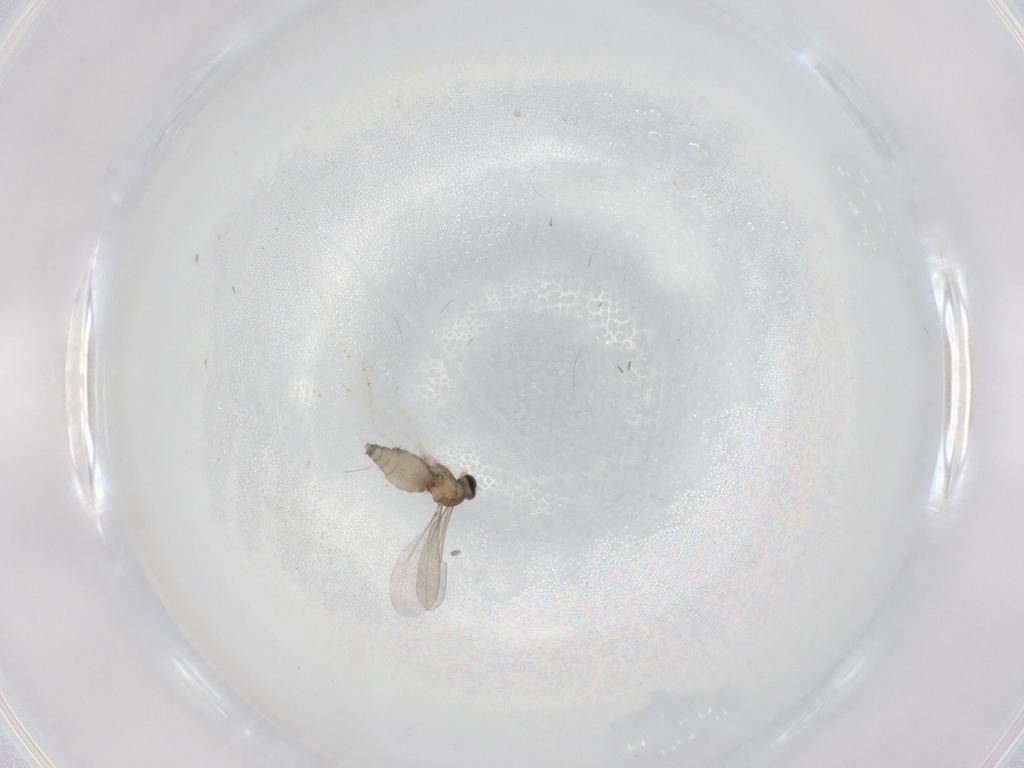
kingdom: Animalia
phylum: Arthropoda
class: Insecta
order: Diptera
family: Cecidomyiidae
